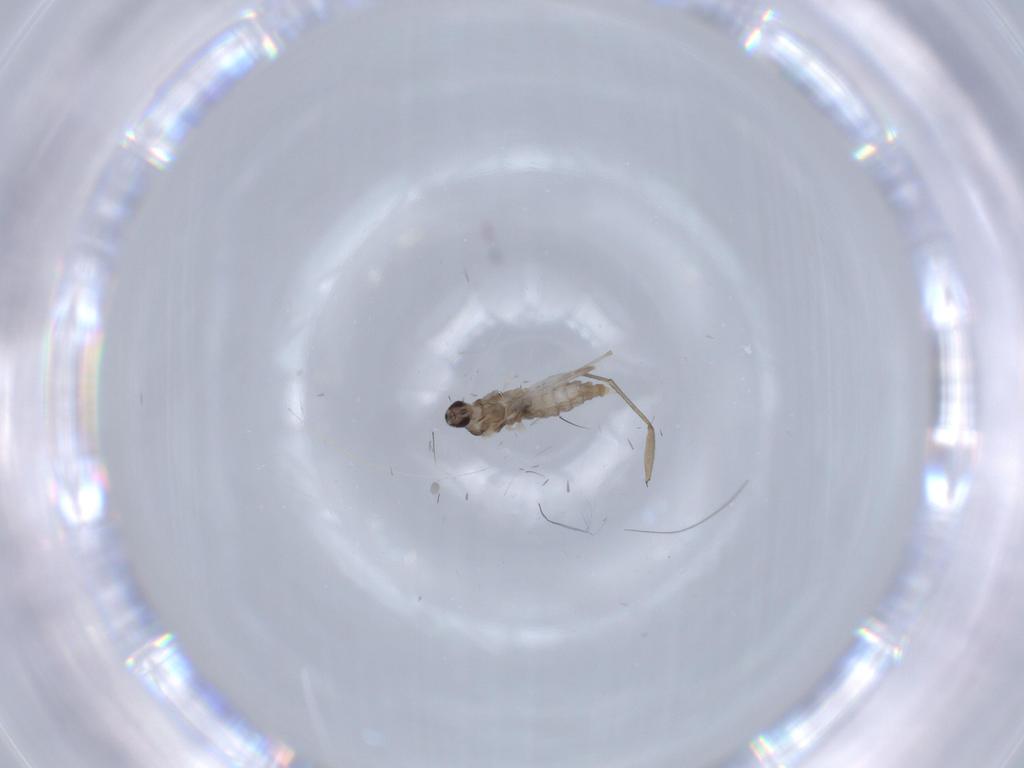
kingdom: Animalia
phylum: Arthropoda
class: Insecta
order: Diptera
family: Sciaridae
